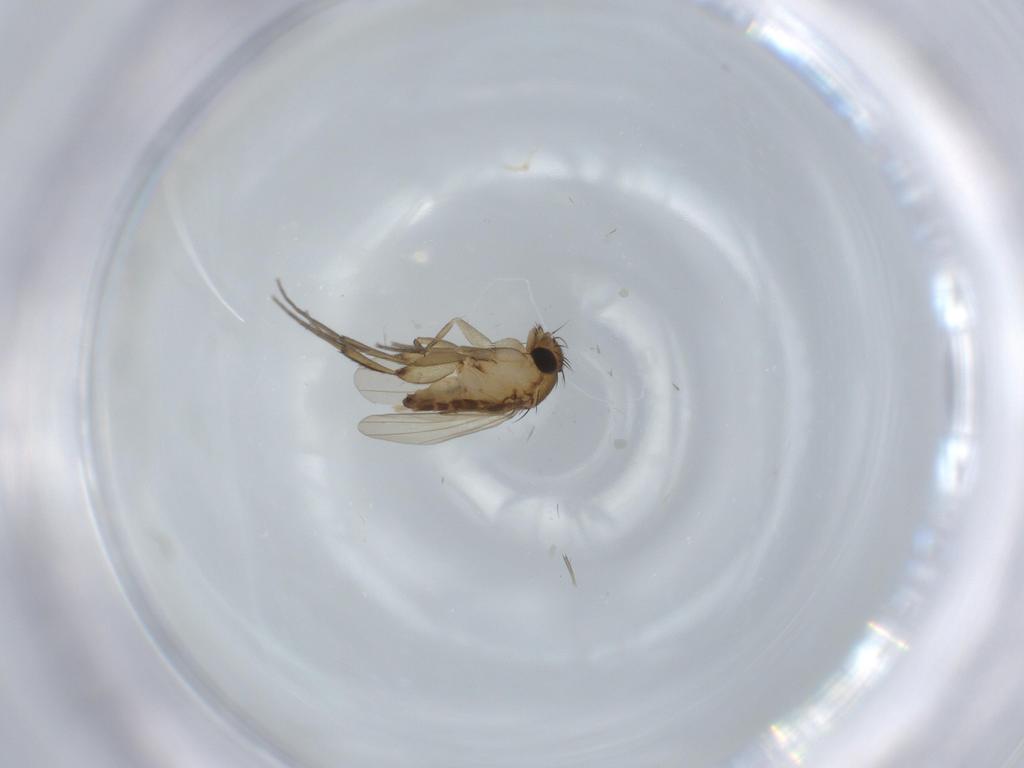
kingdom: Animalia
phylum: Arthropoda
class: Insecta
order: Diptera
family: Phoridae
